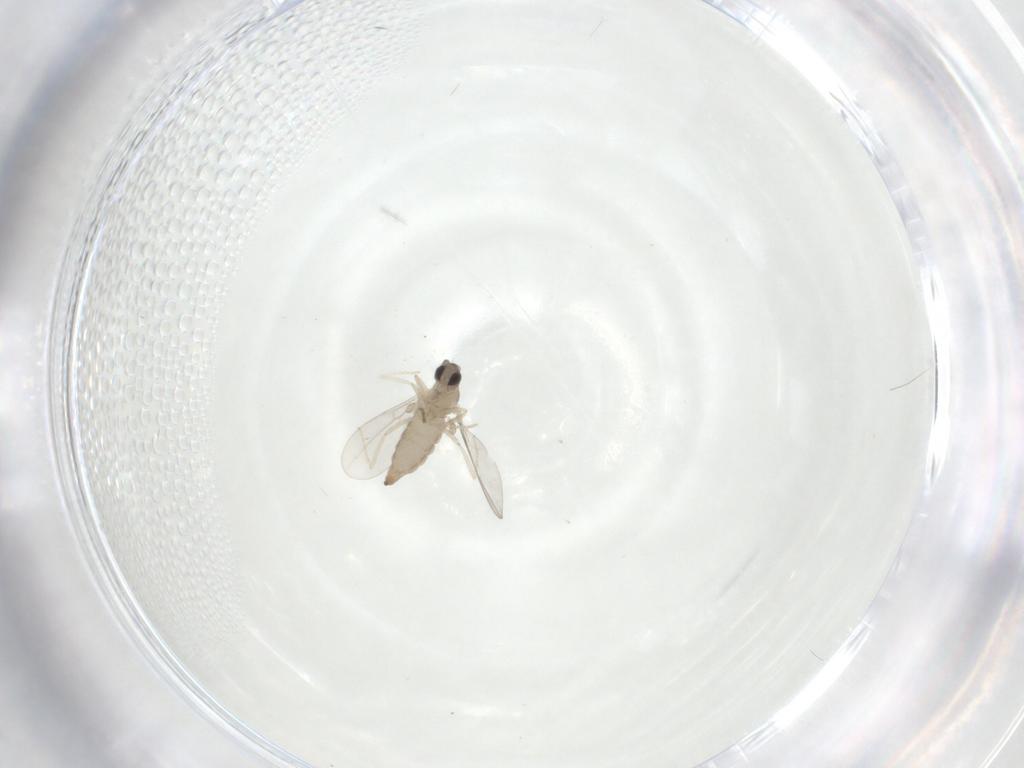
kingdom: Animalia
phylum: Arthropoda
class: Insecta
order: Diptera
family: Cecidomyiidae
